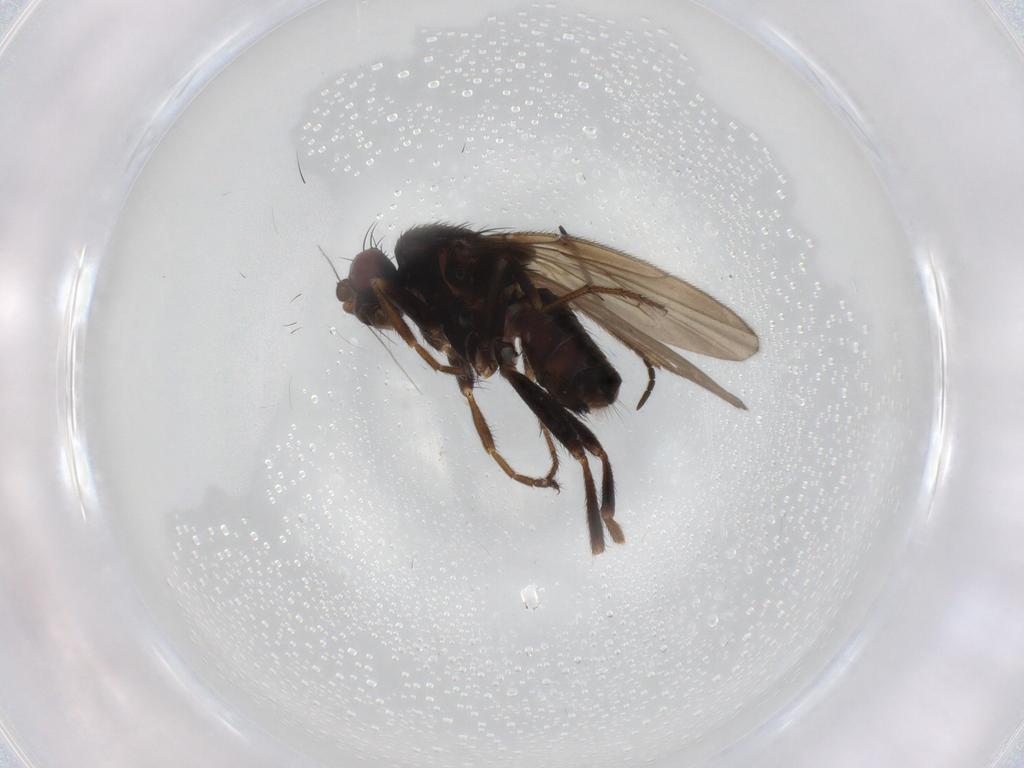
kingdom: Animalia
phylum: Arthropoda
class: Insecta
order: Diptera
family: Sphaeroceridae
